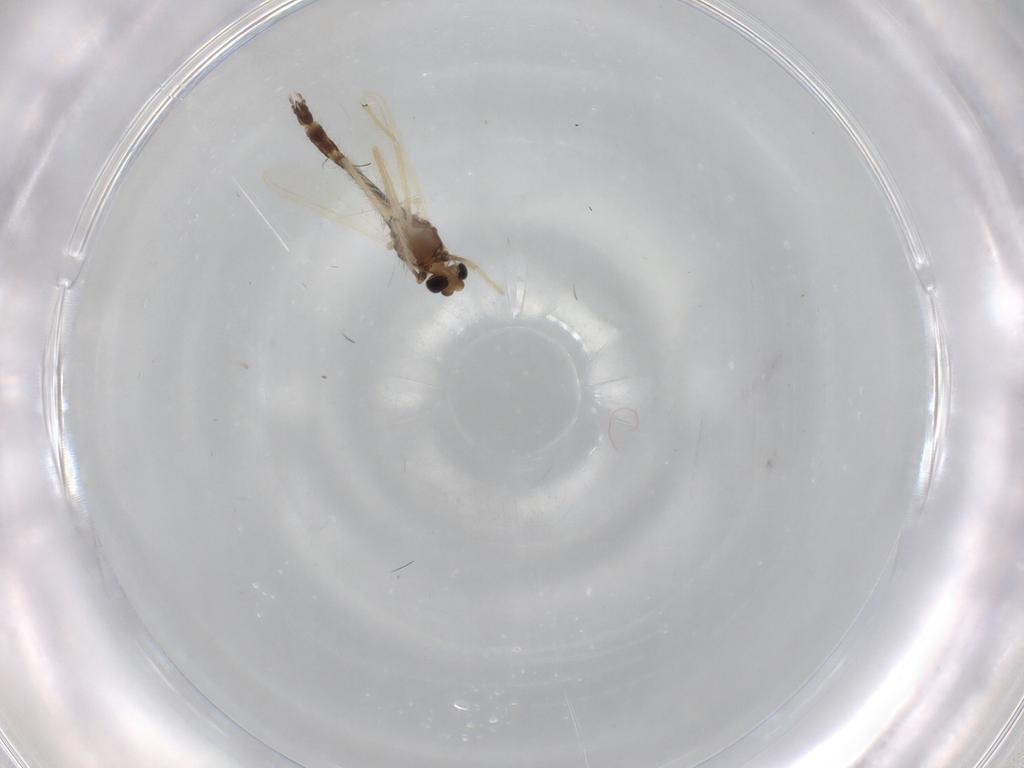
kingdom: Animalia
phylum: Arthropoda
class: Insecta
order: Diptera
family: Chironomidae
